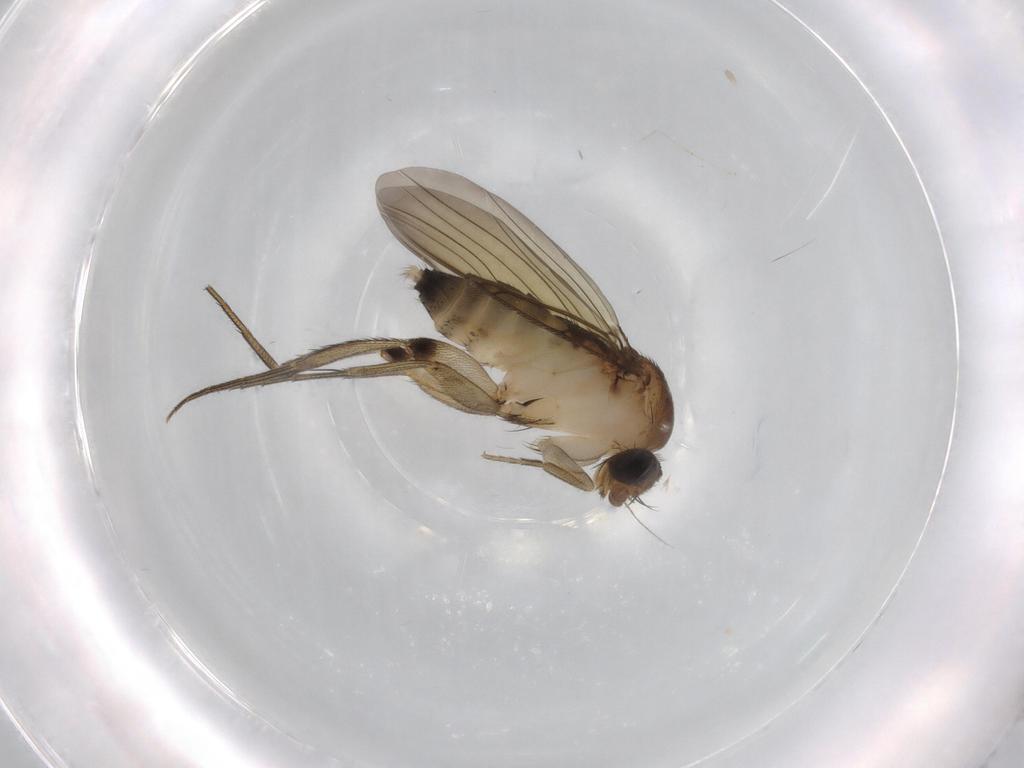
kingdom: Animalia
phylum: Arthropoda
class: Insecta
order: Diptera
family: Phoridae
